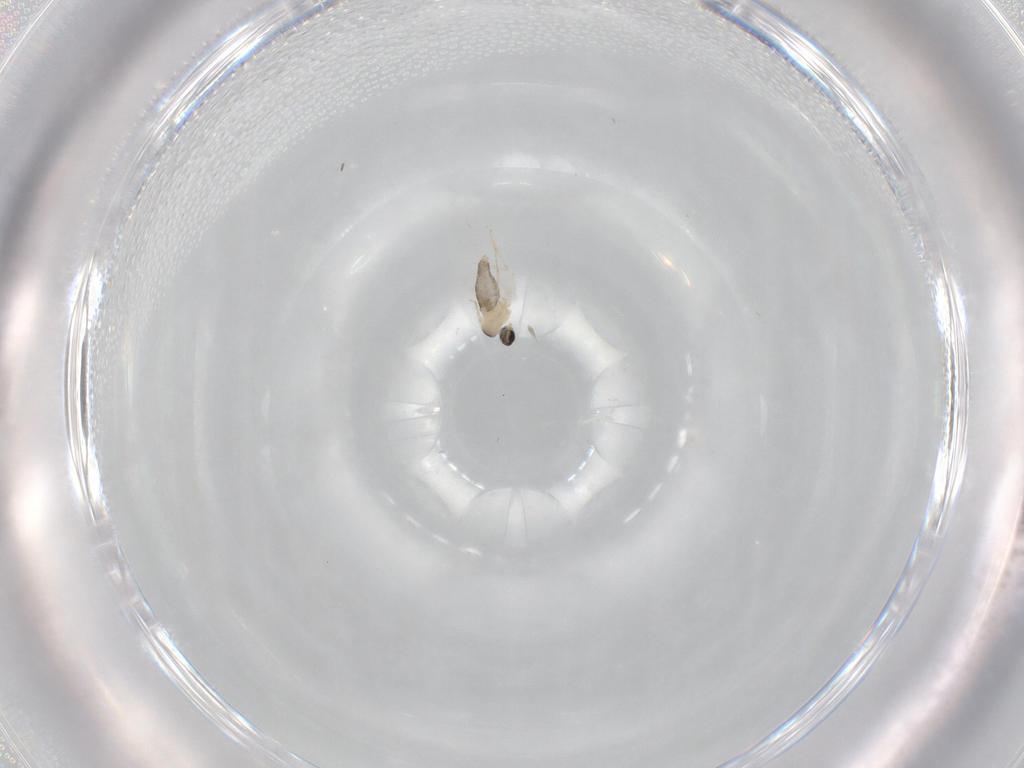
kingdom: Animalia
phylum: Arthropoda
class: Insecta
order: Diptera
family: Cecidomyiidae
